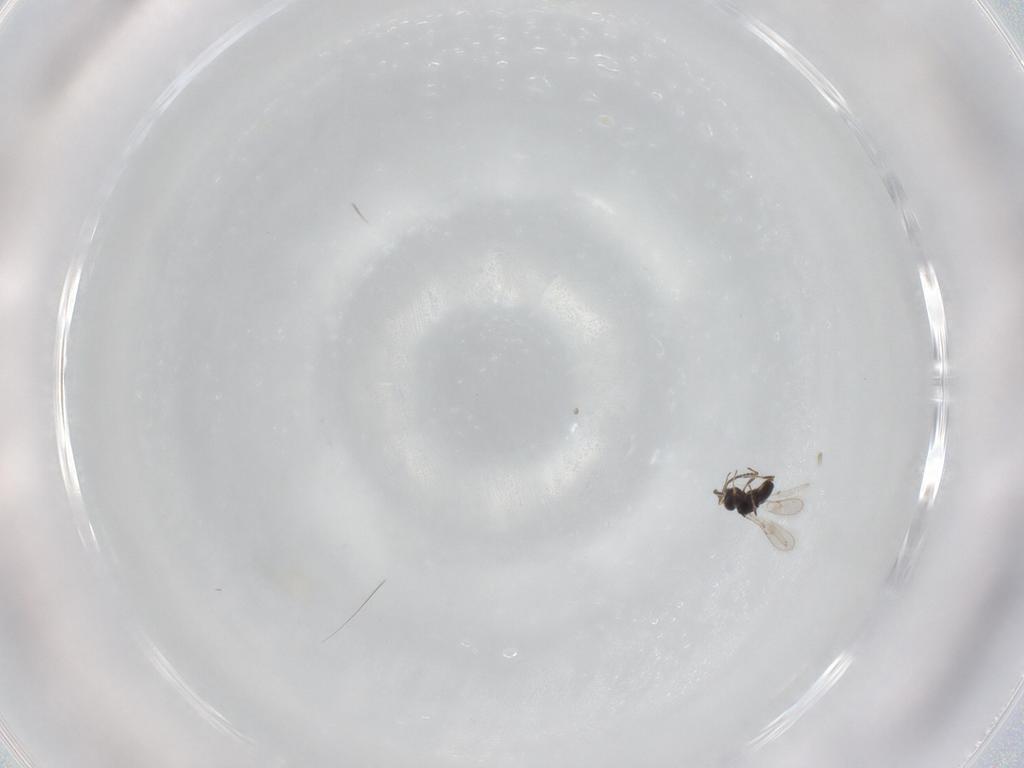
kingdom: Animalia
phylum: Arthropoda
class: Insecta
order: Hymenoptera
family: Scelionidae
